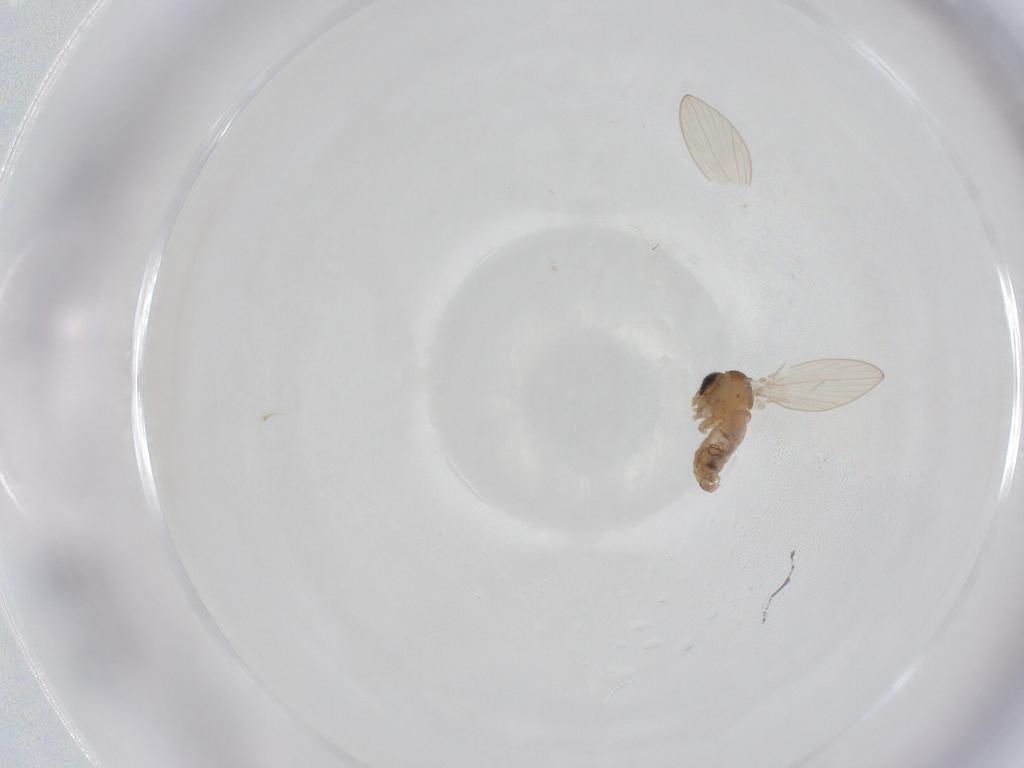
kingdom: Animalia
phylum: Arthropoda
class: Insecta
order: Diptera
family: Psychodidae
